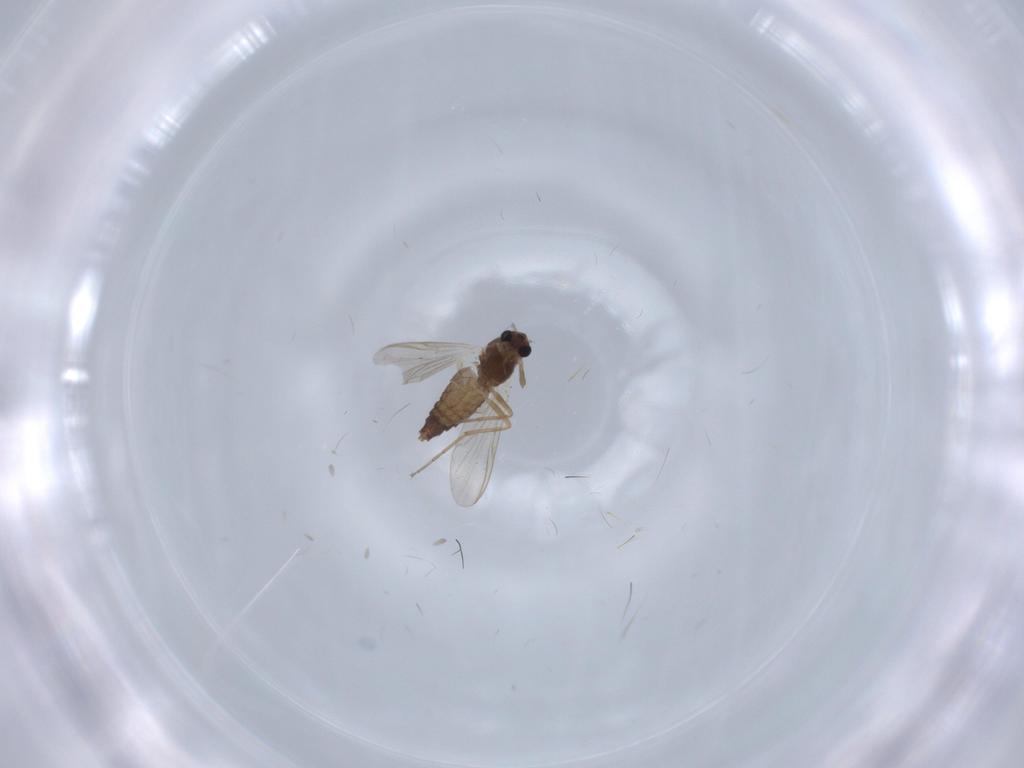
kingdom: Animalia
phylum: Arthropoda
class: Insecta
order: Diptera
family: Chironomidae
